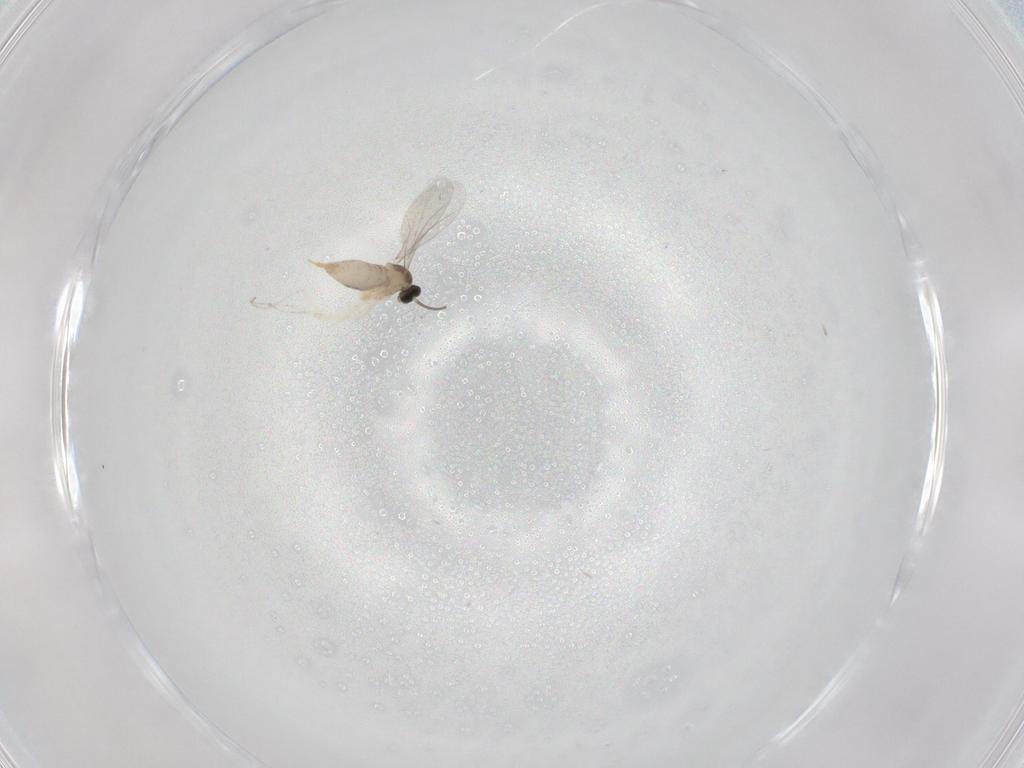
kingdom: Animalia
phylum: Arthropoda
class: Insecta
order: Diptera
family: Cecidomyiidae
